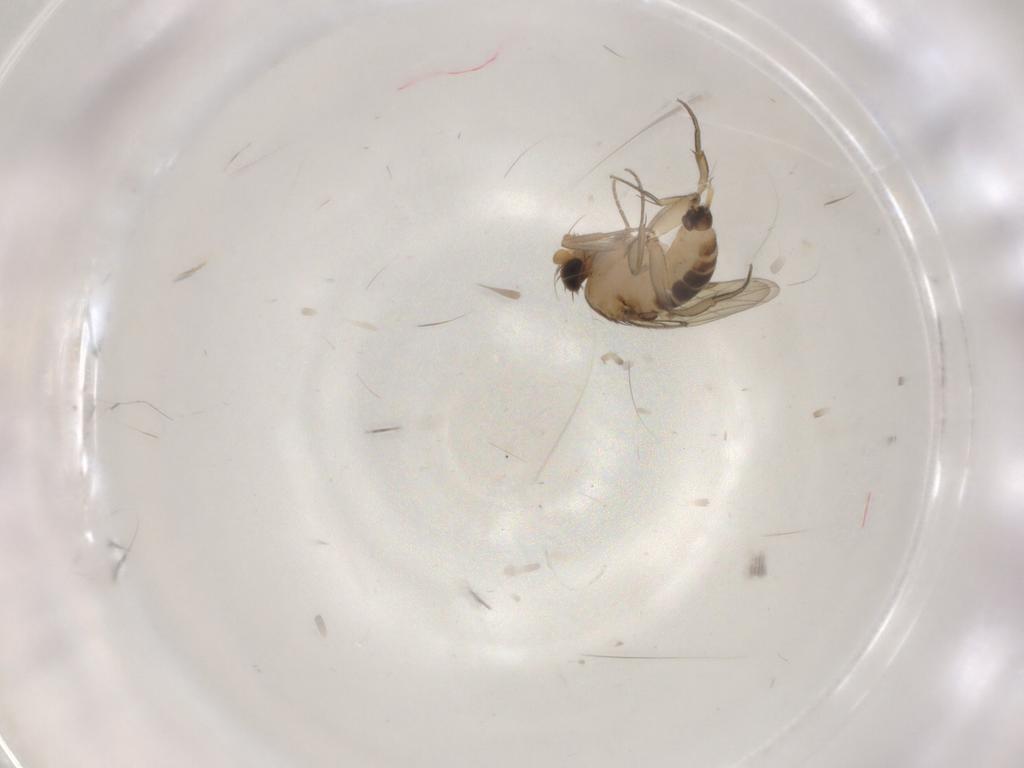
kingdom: Animalia
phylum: Arthropoda
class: Insecta
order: Diptera
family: Phoridae
